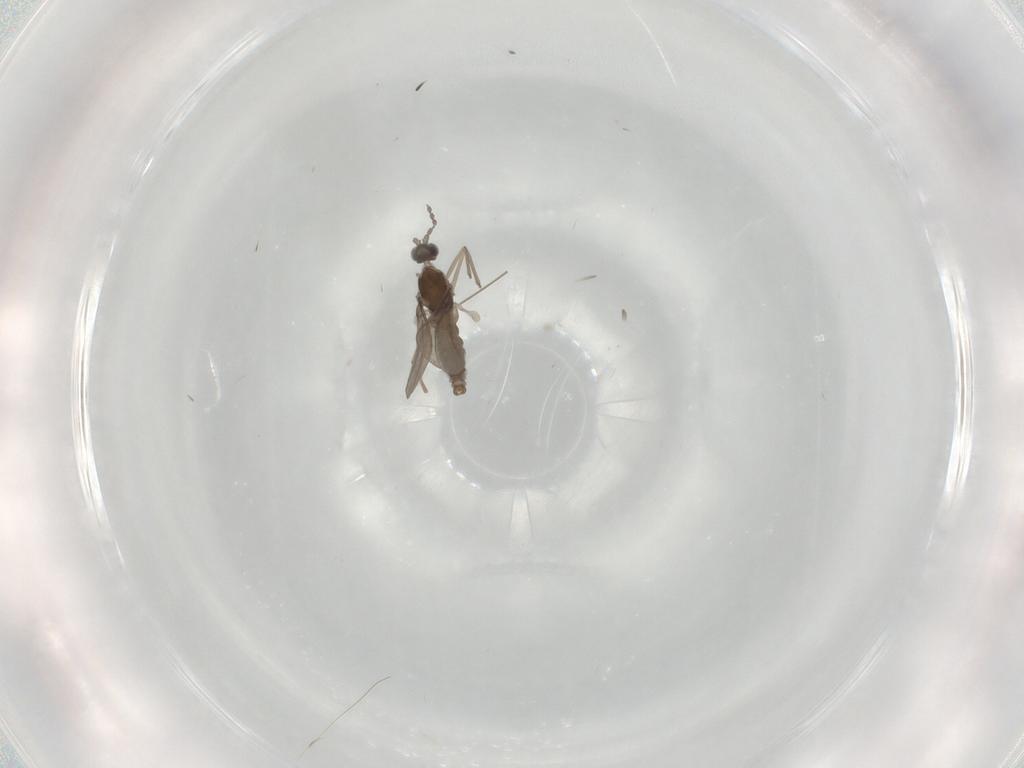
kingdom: Animalia
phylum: Arthropoda
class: Insecta
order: Diptera
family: Cecidomyiidae
